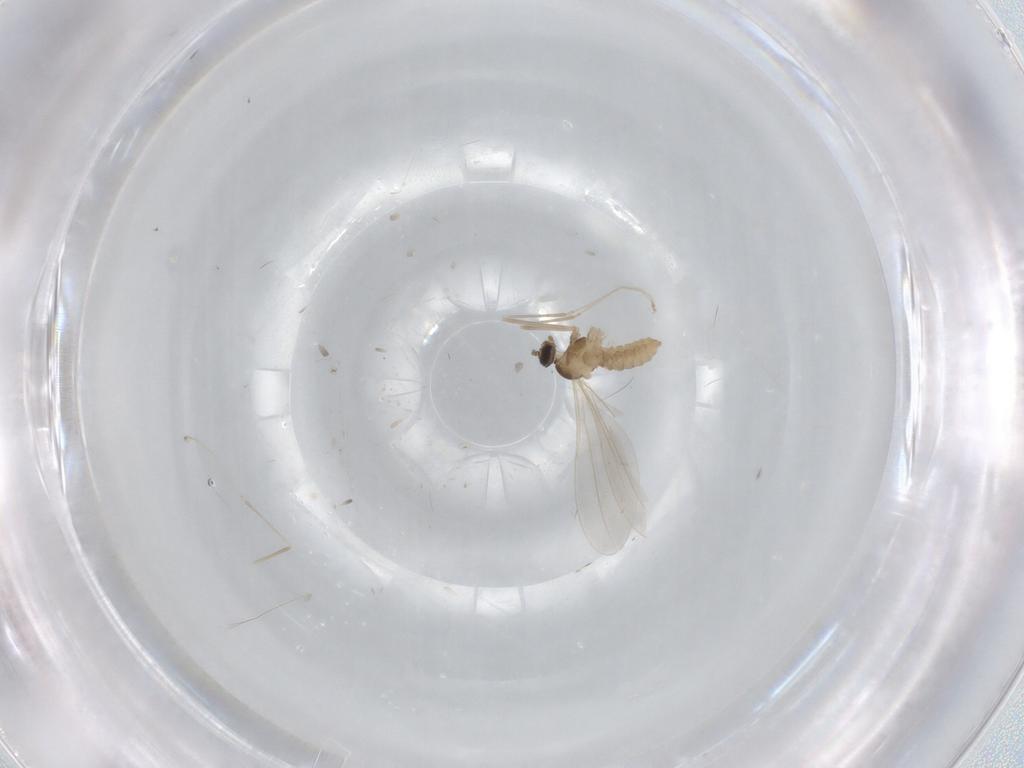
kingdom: Animalia
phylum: Arthropoda
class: Insecta
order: Diptera
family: Cecidomyiidae
